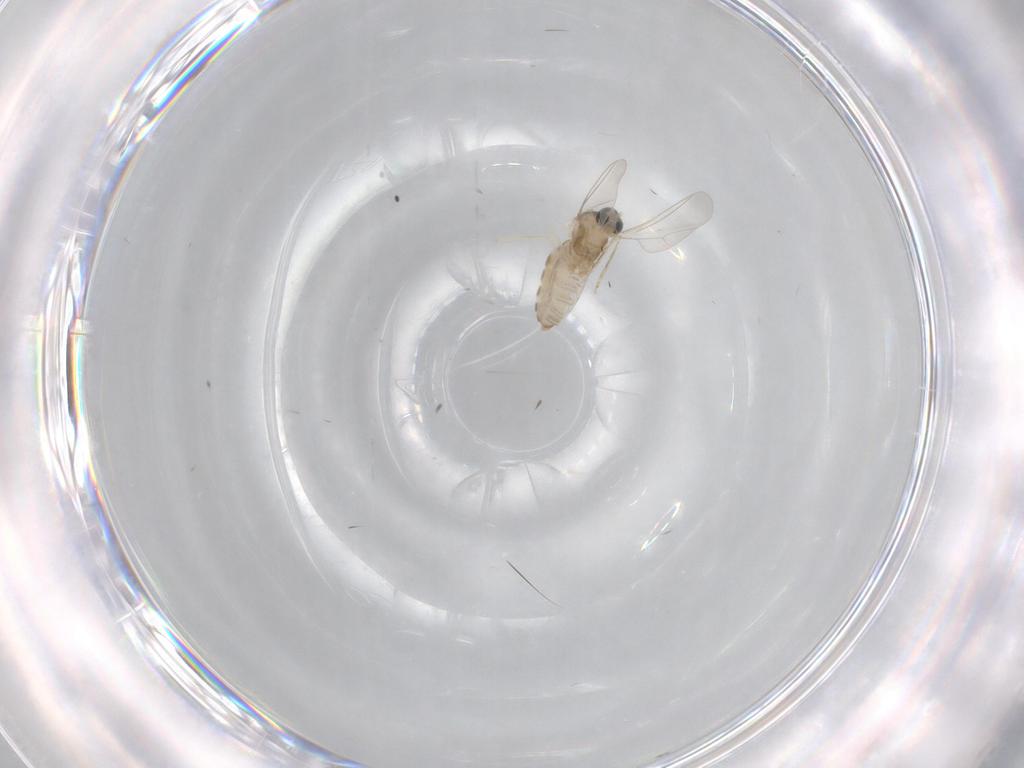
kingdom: Animalia
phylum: Arthropoda
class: Insecta
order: Diptera
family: Cecidomyiidae
